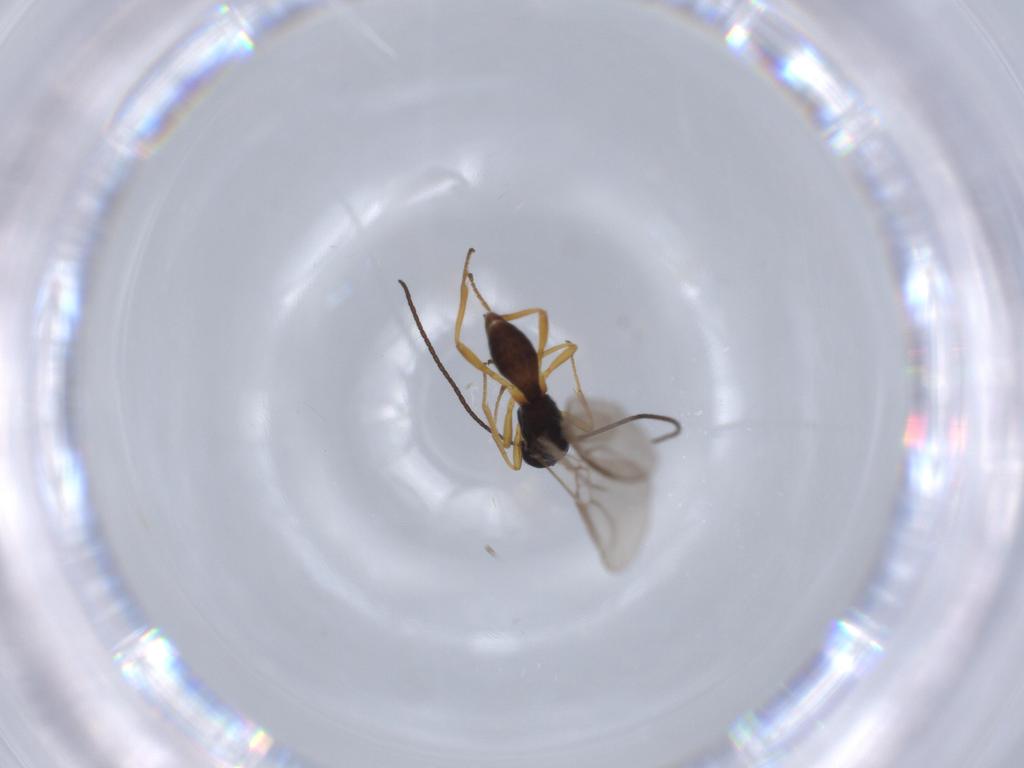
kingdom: Animalia
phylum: Arthropoda
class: Insecta
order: Hymenoptera
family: Braconidae
